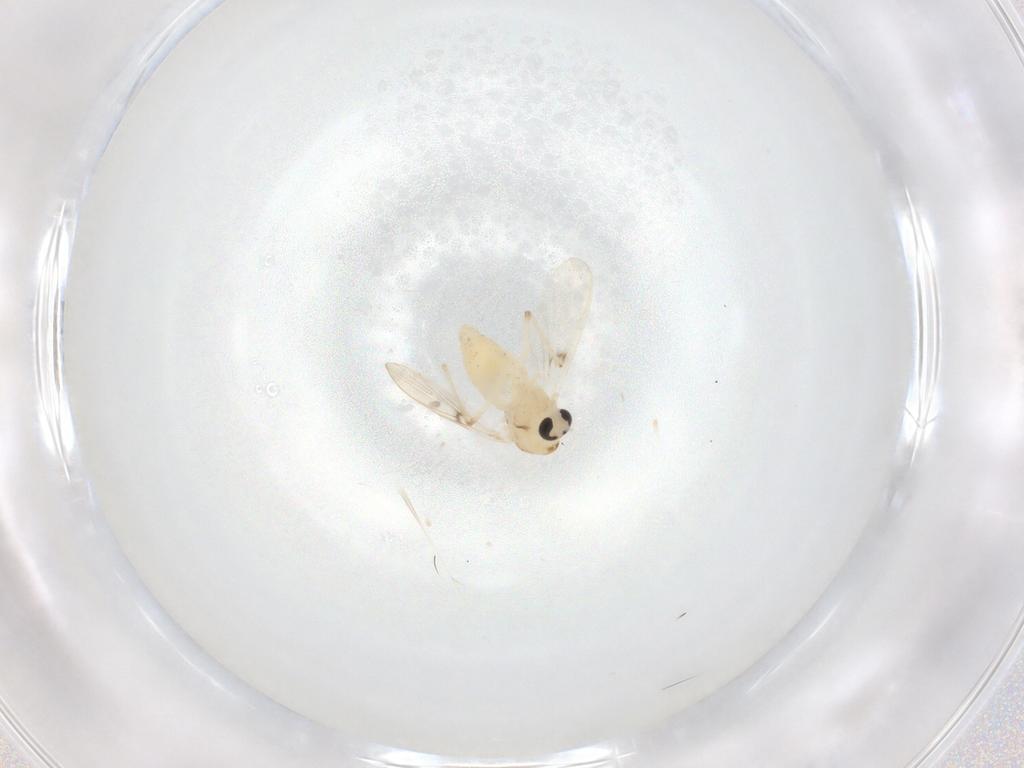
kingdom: Animalia
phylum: Arthropoda
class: Insecta
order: Diptera
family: Chironomidae
